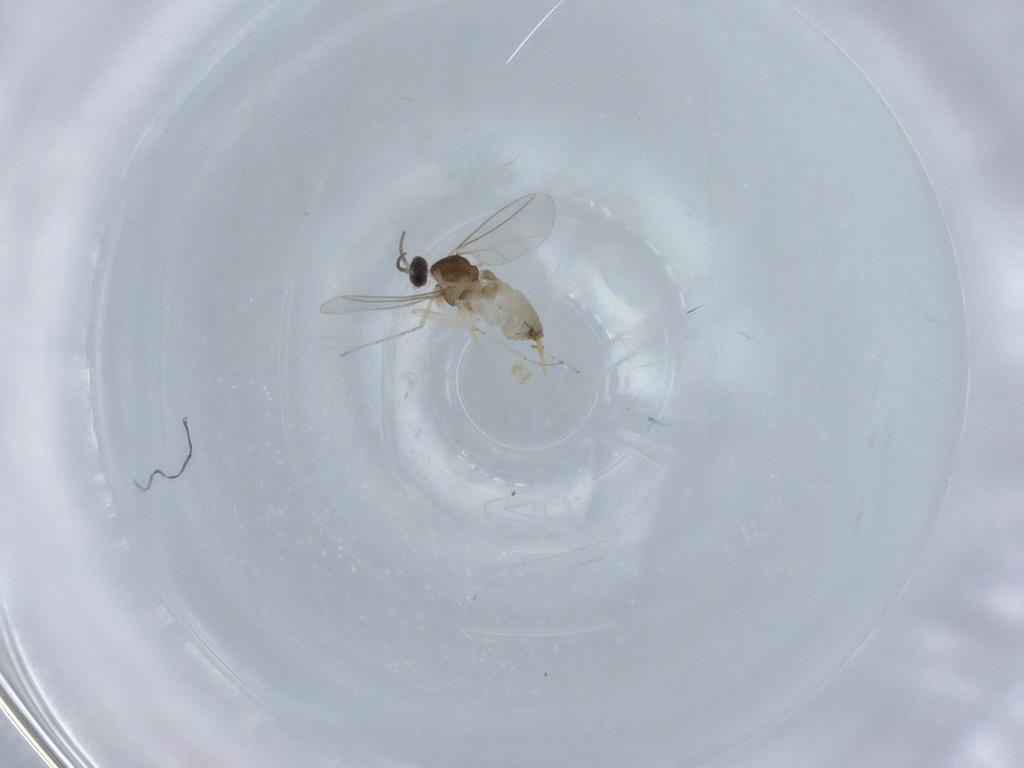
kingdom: Animalia
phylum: Arthropoda
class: Insecta
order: Diptera
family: Cecidomyiidae
